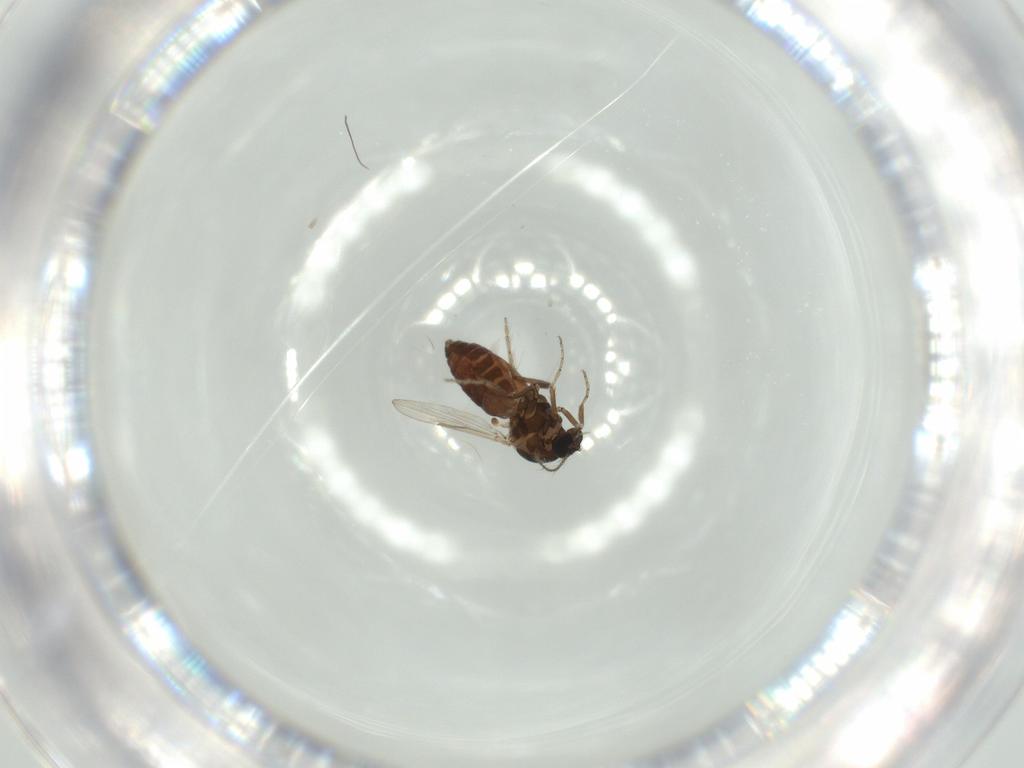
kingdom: Animalia
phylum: Arthropoda
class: Insecta
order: Diptera
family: Ceratopogonidae
